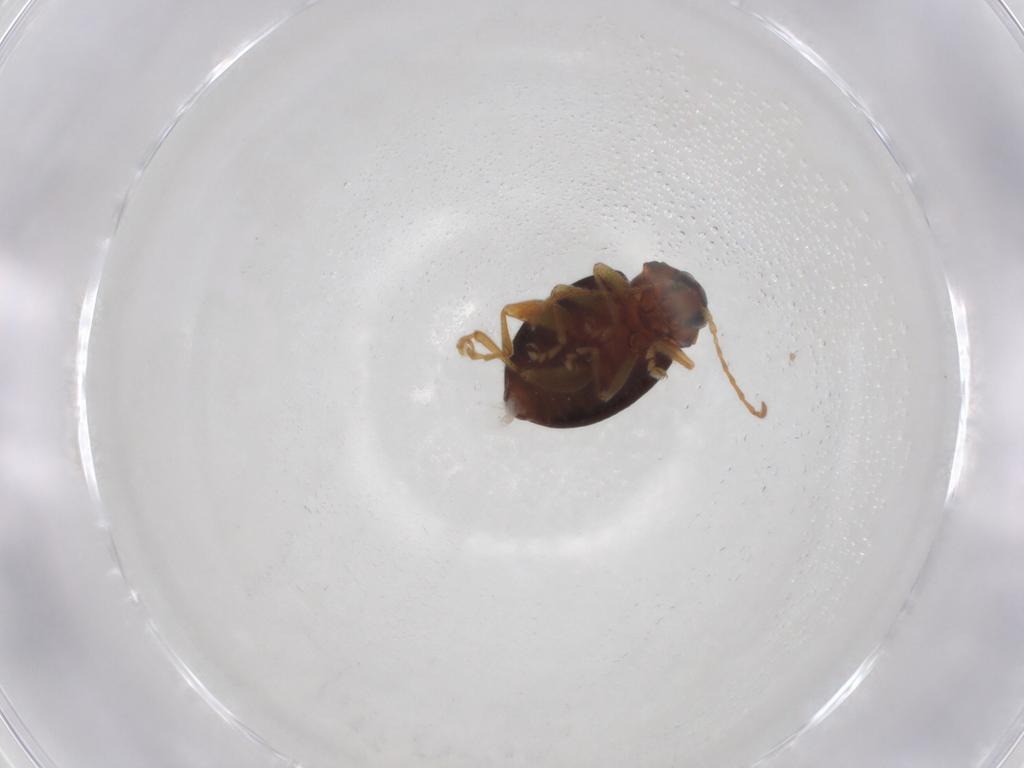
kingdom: Animalia
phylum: Arthropoda
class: Insecta
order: Coleoptera
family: Chrysomelidae
